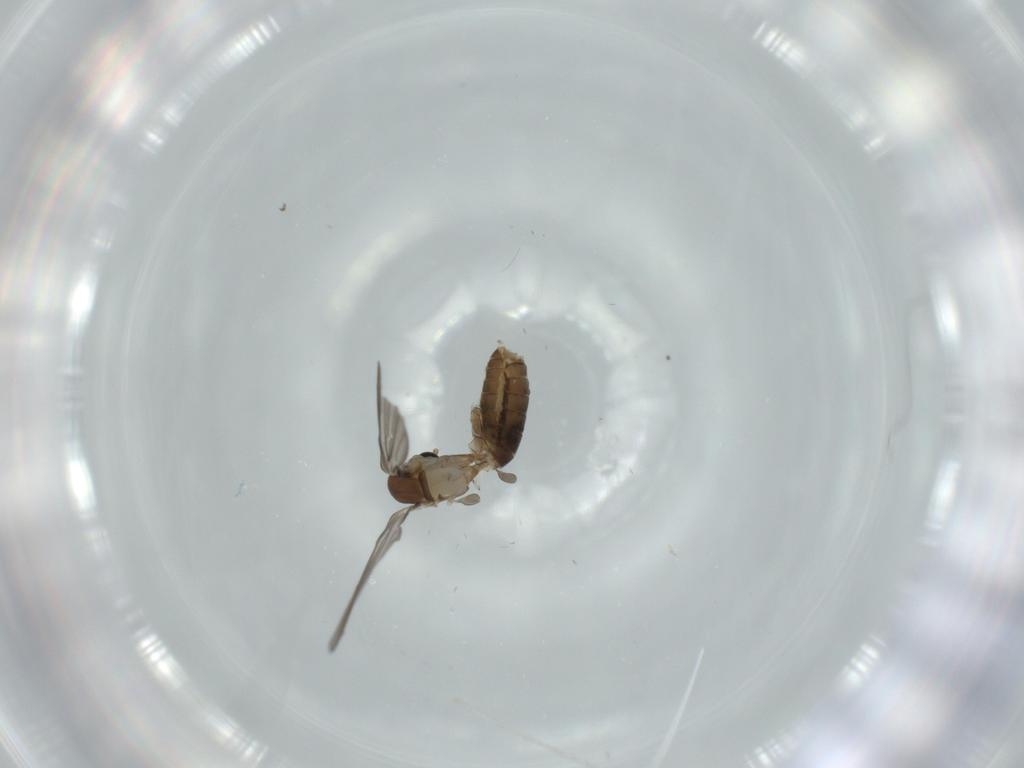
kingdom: Animalia
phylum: Arthropoda
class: Insecta
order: Diptera
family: Psychodidae
